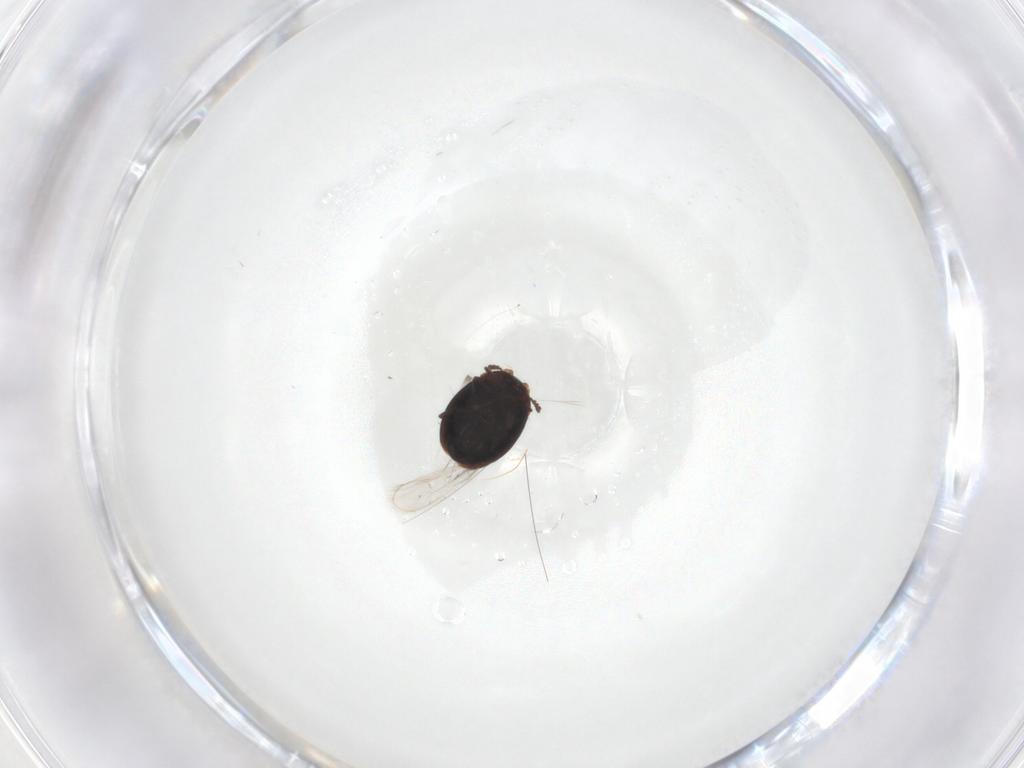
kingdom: Animalia
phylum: Arthropoda
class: Insecta
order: Coleoptera
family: Corylophidae
